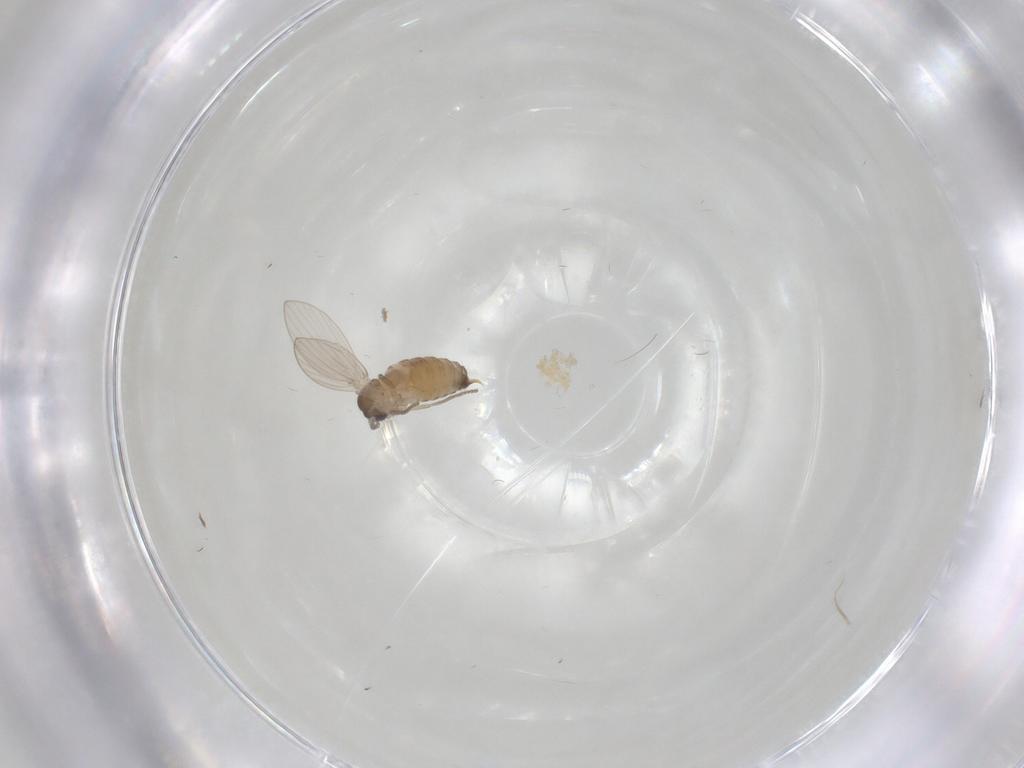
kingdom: Animalia
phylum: Arthropoda
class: Insecta
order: Diptera
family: Psychodidae
